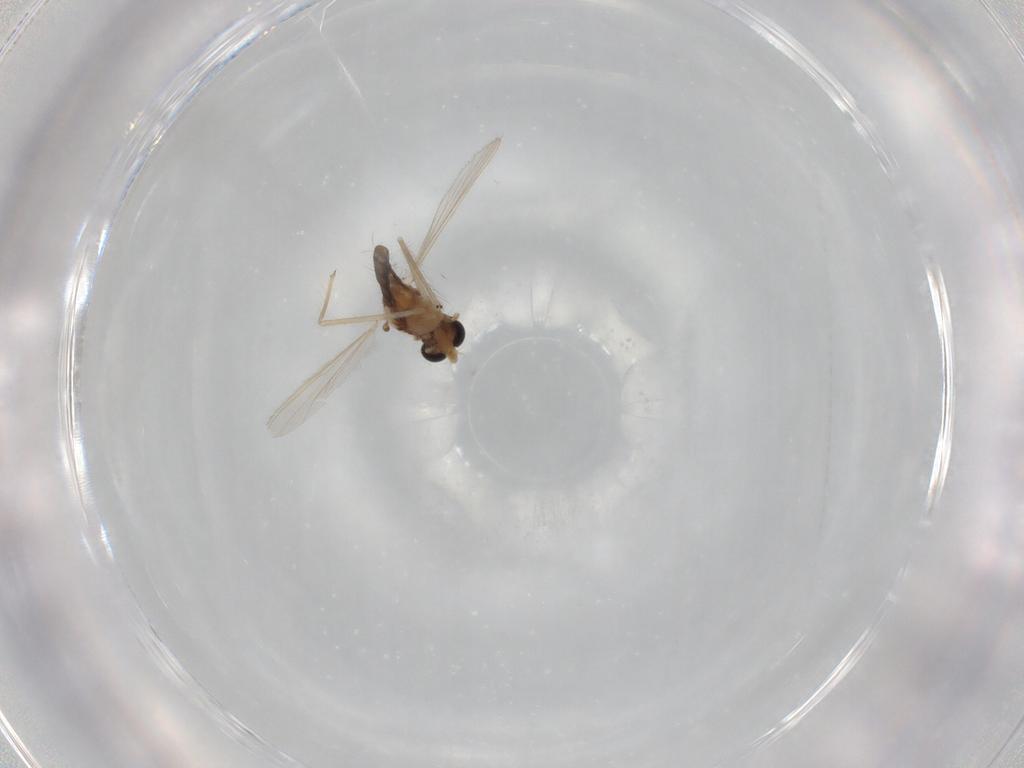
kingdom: Animalia
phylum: Arthropoda
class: Insecta
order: Diptera
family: Chironomidae
